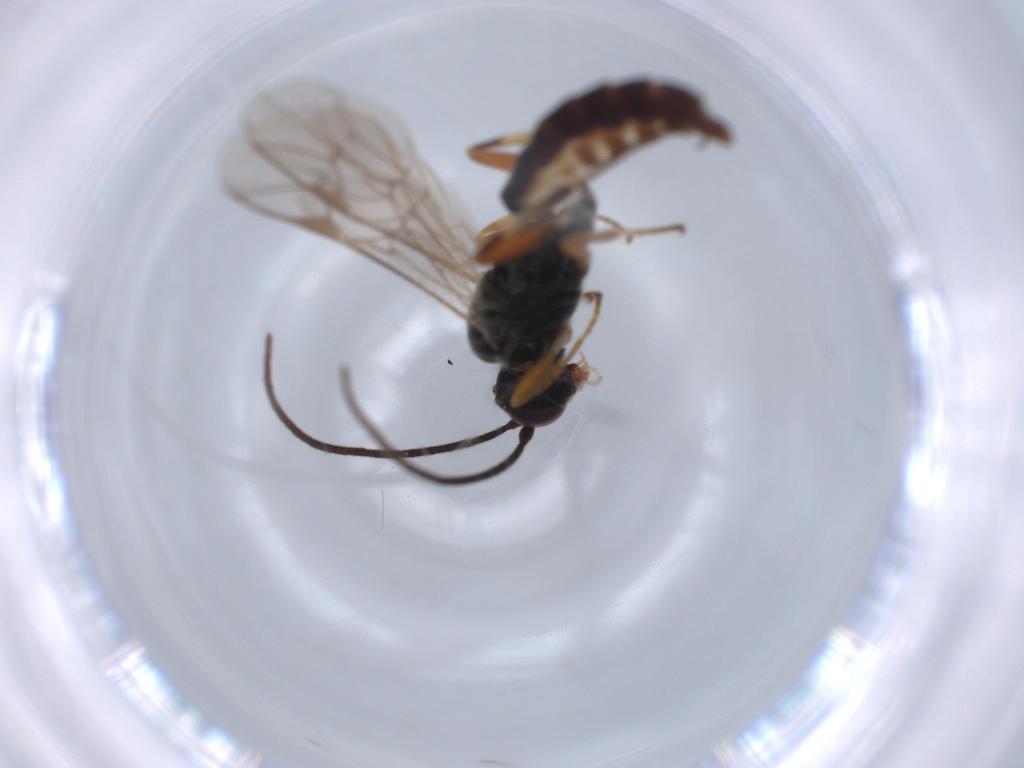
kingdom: Animalia
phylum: Arthropoda
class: Insecta
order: Hymenoptera
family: Ichneumonidae
